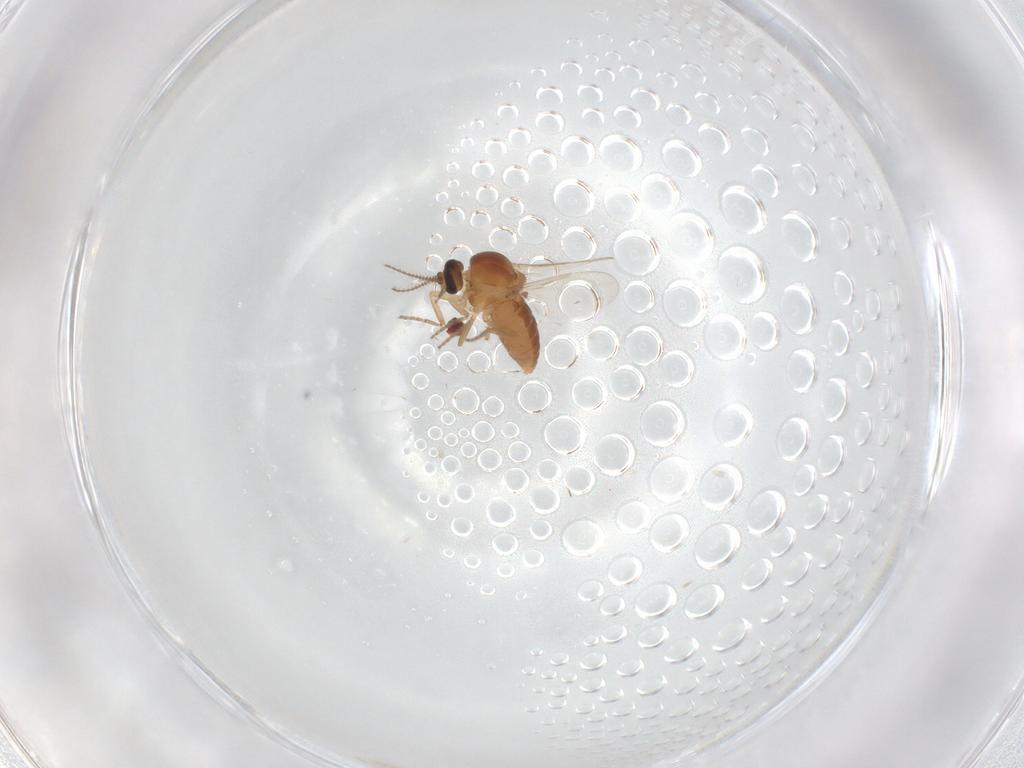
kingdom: Animalia
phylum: Arthropoda
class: Insecta
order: Diptera
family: Ceratopogonidae
